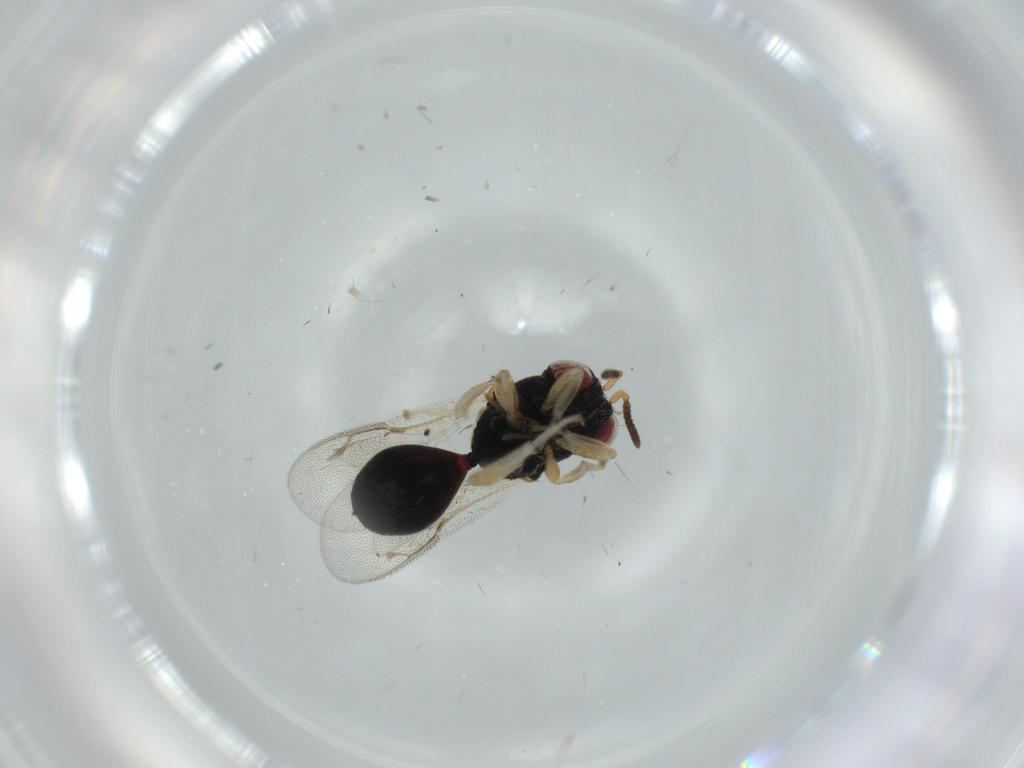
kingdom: Animalia
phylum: Arthropoda
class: Insecta
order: Hymenoptera
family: Eurytomidae
